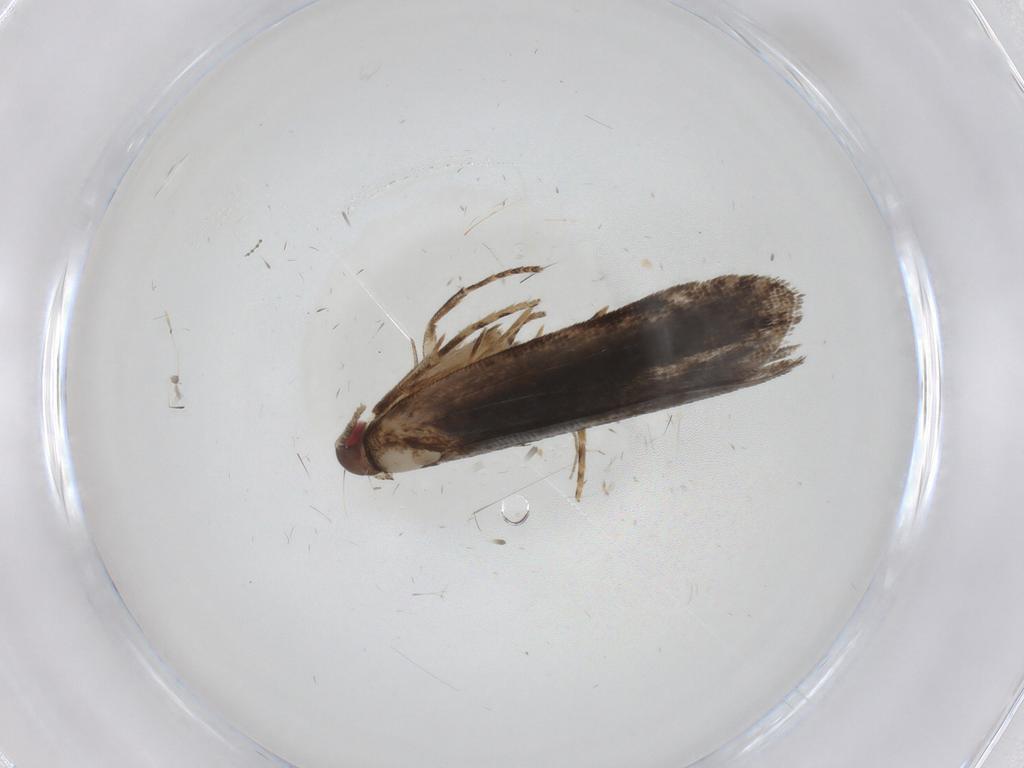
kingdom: Animalia
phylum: Arthropoda
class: Insecta
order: Lepidoptera
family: Gelechiidae
